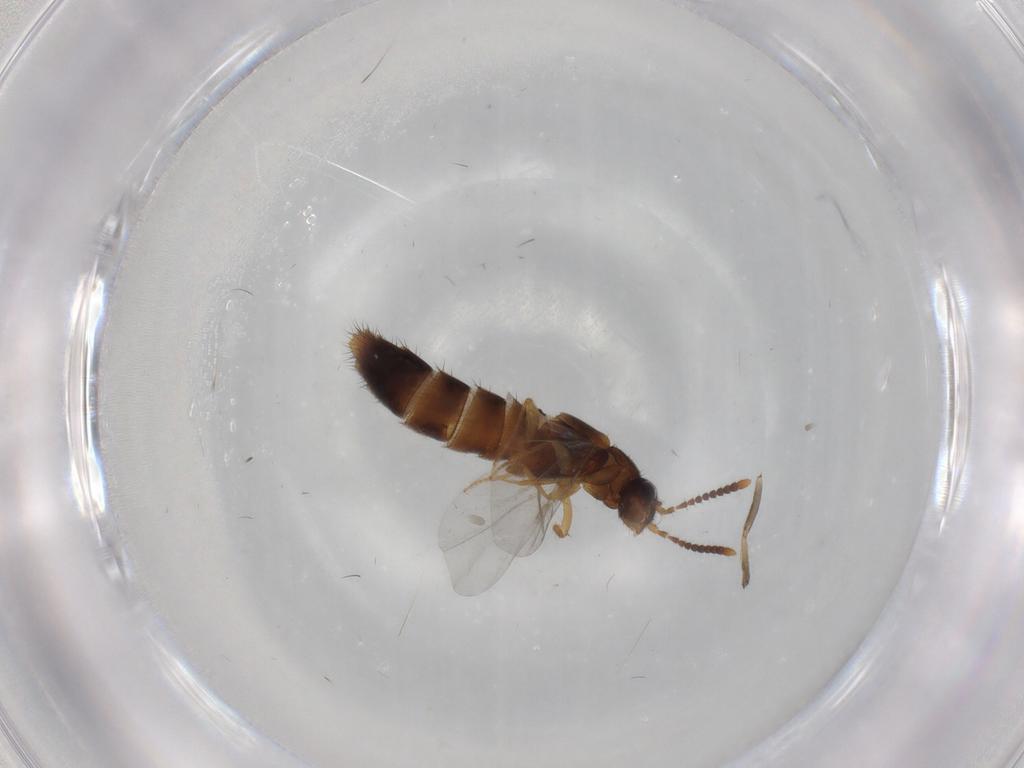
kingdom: Animalia
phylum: Arthropoda
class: Insecta
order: Coleoptera
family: Staphylinidae
